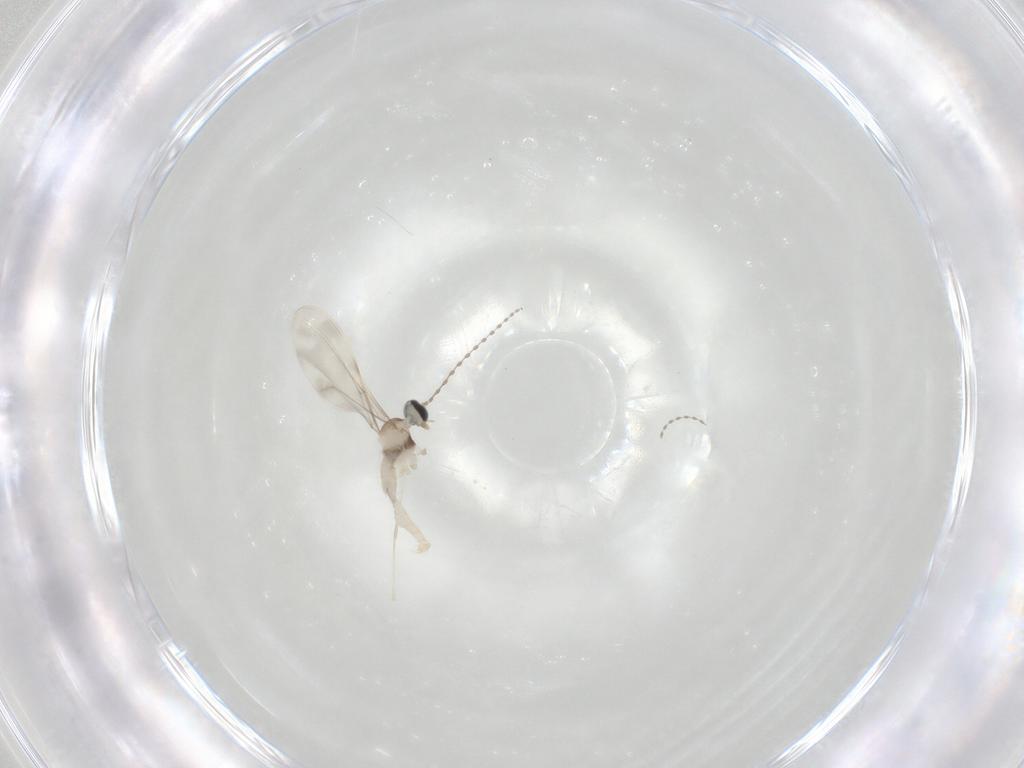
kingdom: Animalia
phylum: Arthropoda
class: Insecta
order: Diptera
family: Cecidomyiidae
